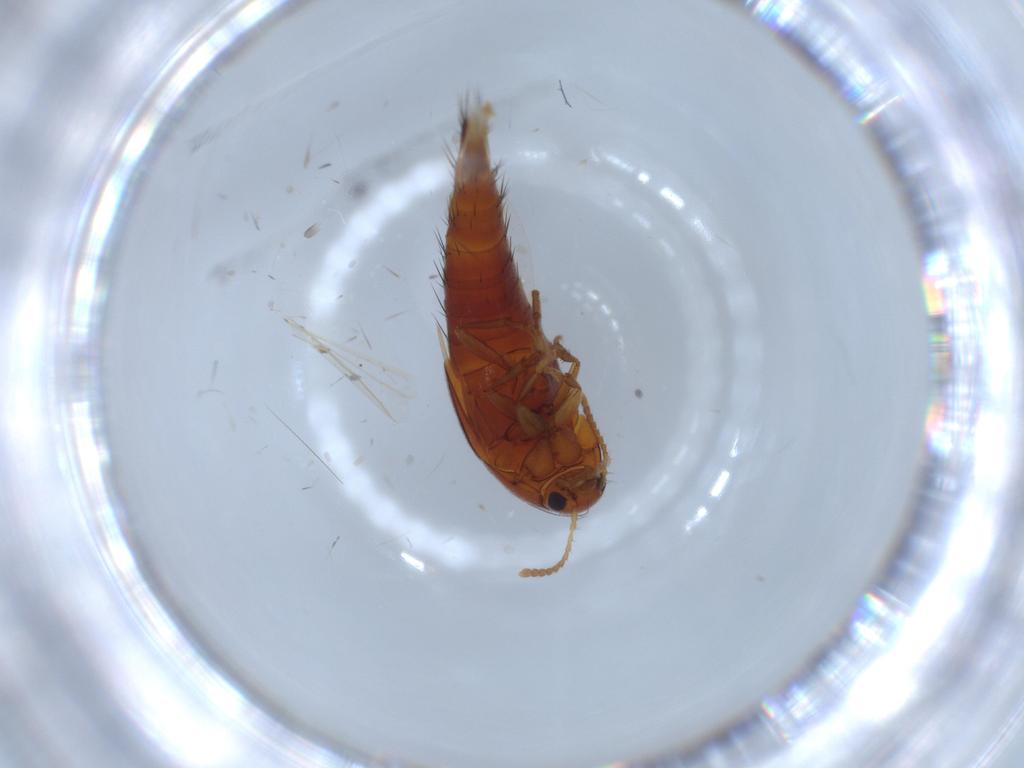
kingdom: Animalia
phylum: Arthropoda
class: Insecta
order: Coleoptera
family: Staphylinidae
